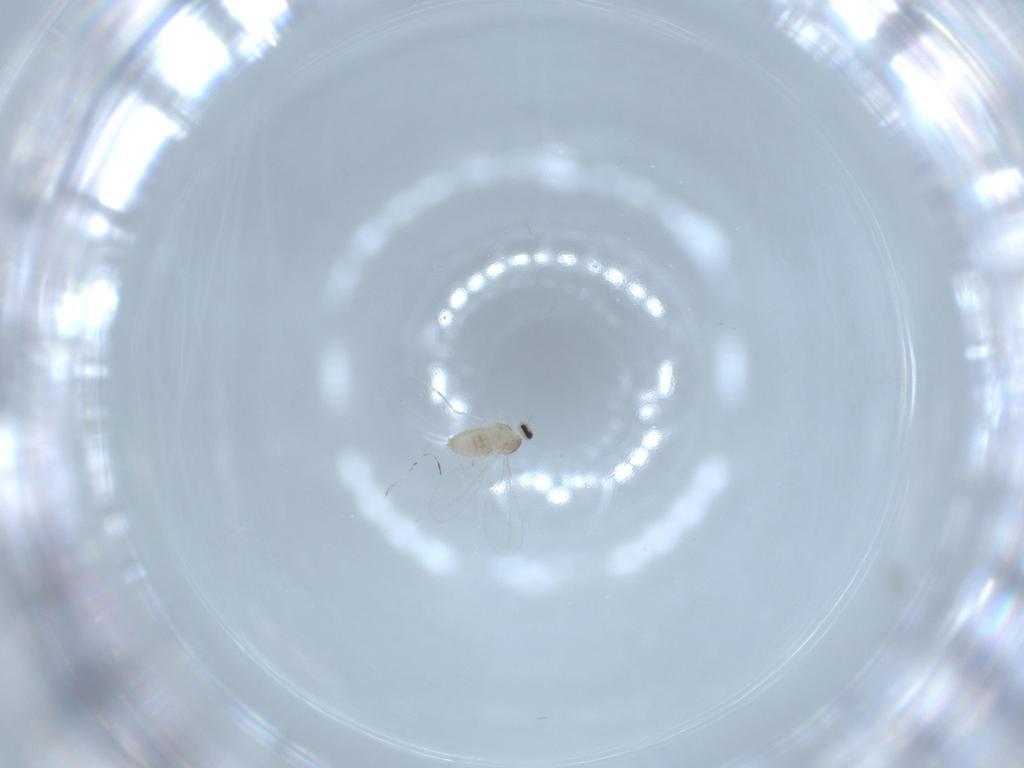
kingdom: Animalia
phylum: Arthropoda
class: Insecta
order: Diptera
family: Cecidomyiidae
